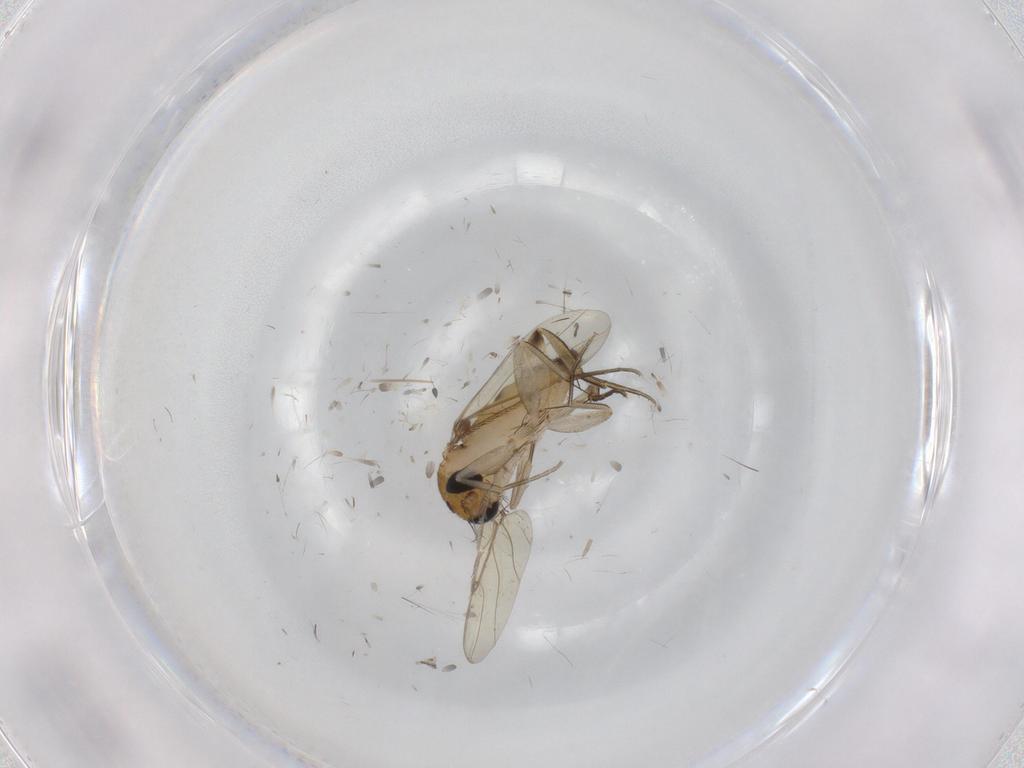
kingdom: Animalia
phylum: Arthropoda
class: Insecta
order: Diptera
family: Phoridae
